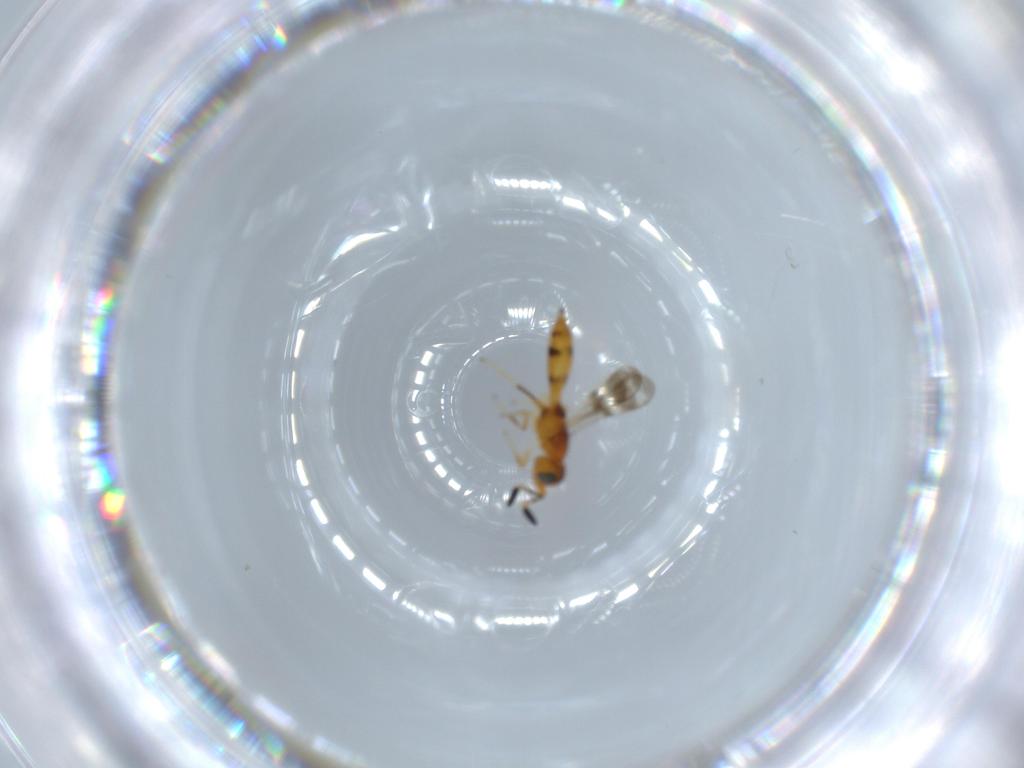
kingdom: Animalia
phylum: Arthropoda
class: Insecta
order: Hymenoptera
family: Scelionidae
